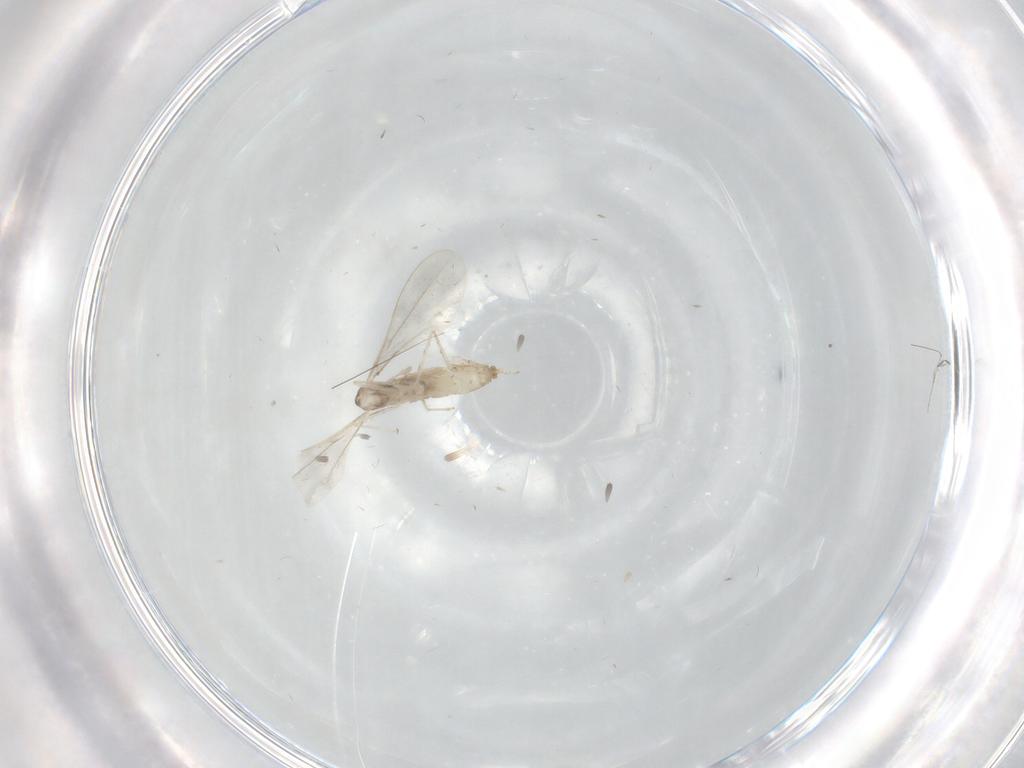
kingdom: Animalia
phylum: Arthropoda
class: Insecta
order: Diptera
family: Cecidomyiidae
